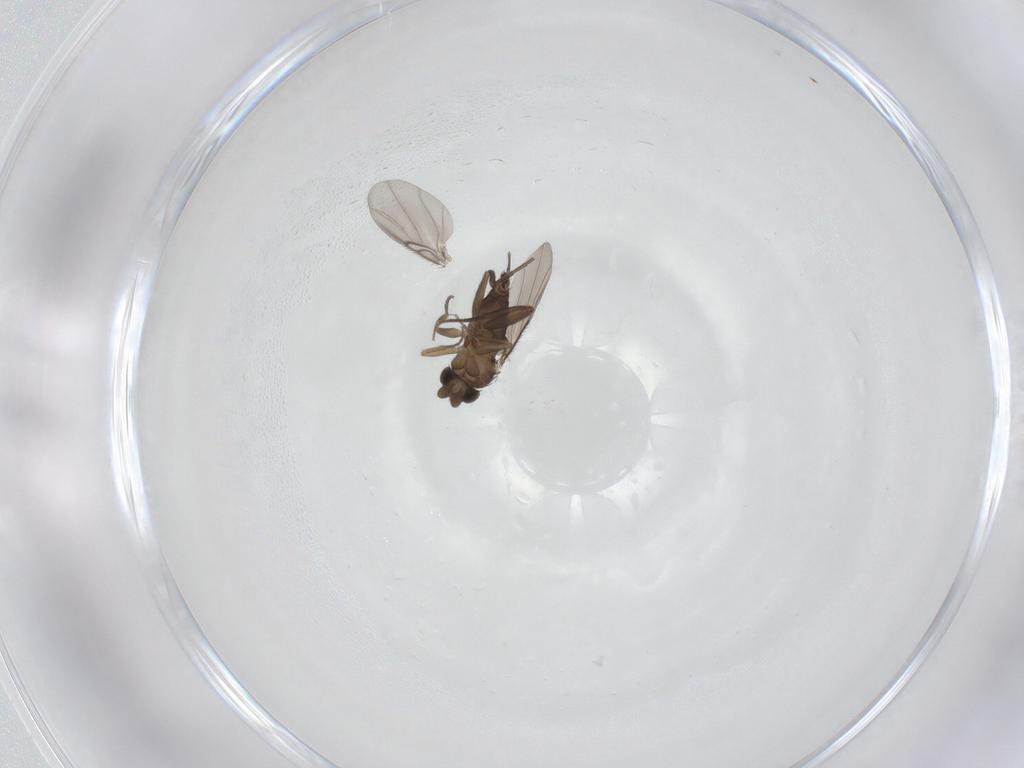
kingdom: Animalia
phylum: Arthropoda
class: Insecta
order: Diptera
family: Phoridae
